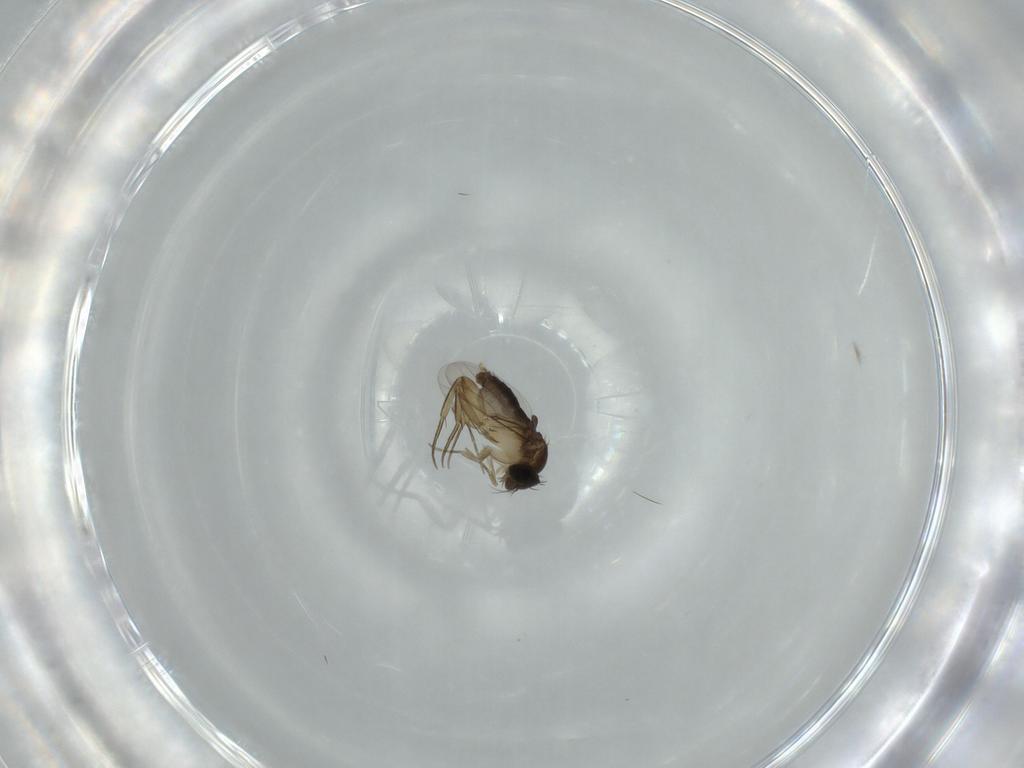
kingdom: Animalia
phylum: Arthropoda
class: Insecta
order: Diptera
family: Phoridae
